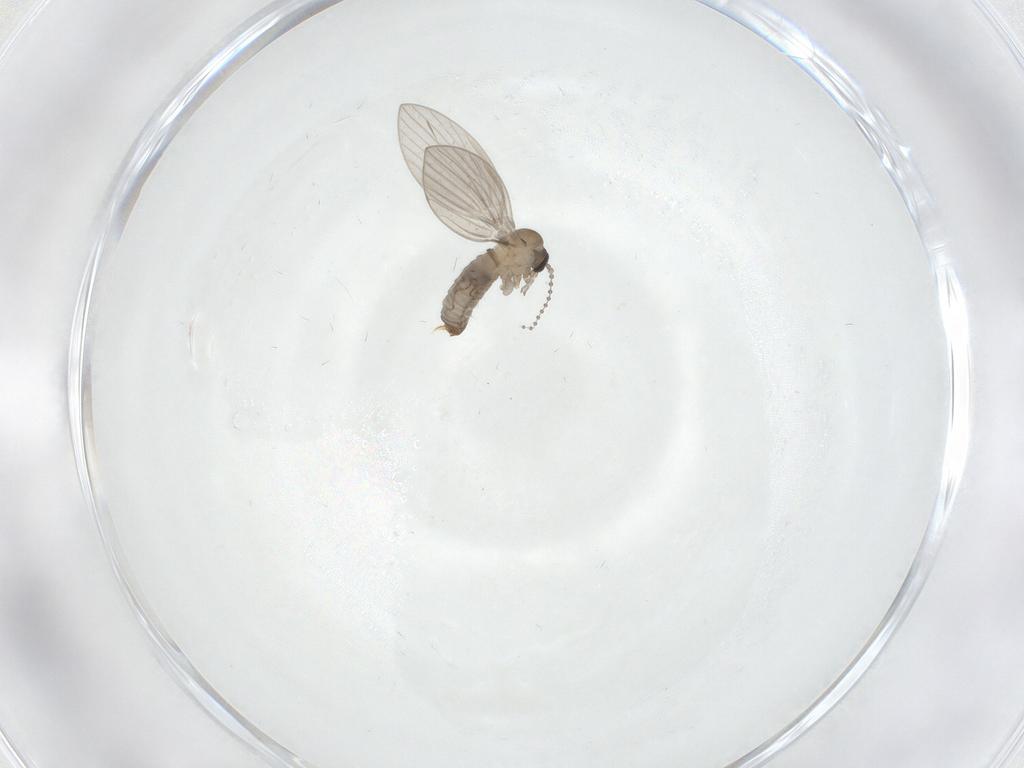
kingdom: Animalia
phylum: Arthropoda
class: Insecta
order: Diptera
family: Psychodidae
